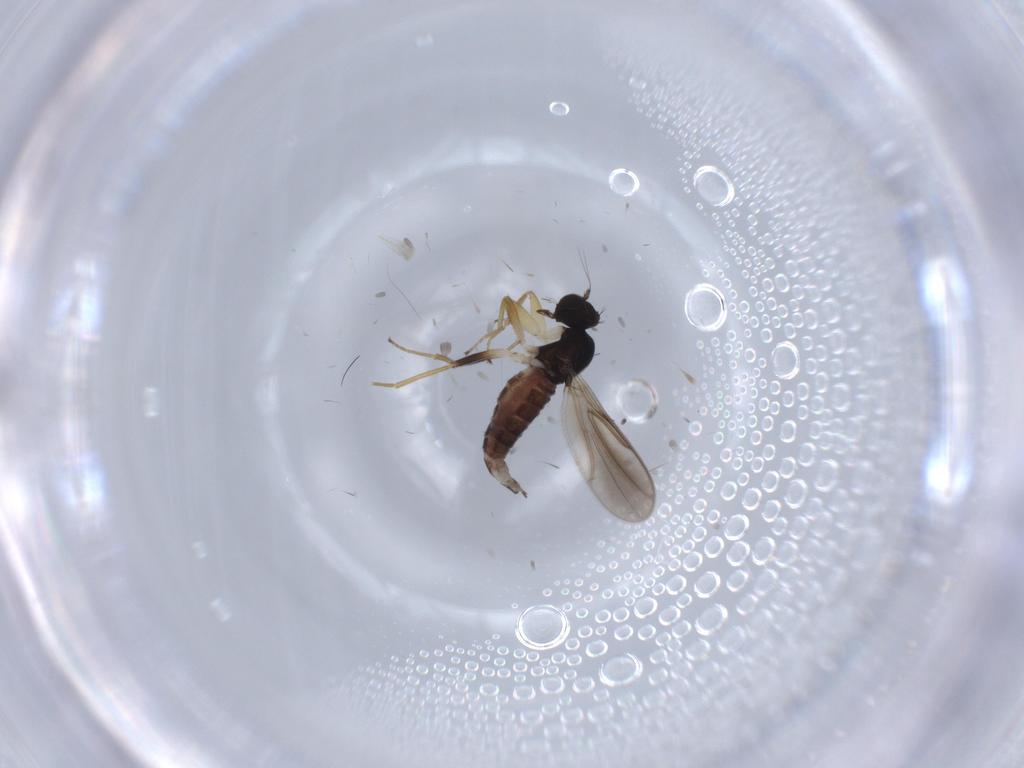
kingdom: Animalia
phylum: Arthropoda
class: Insecta
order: Diptera
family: Hybotidae
